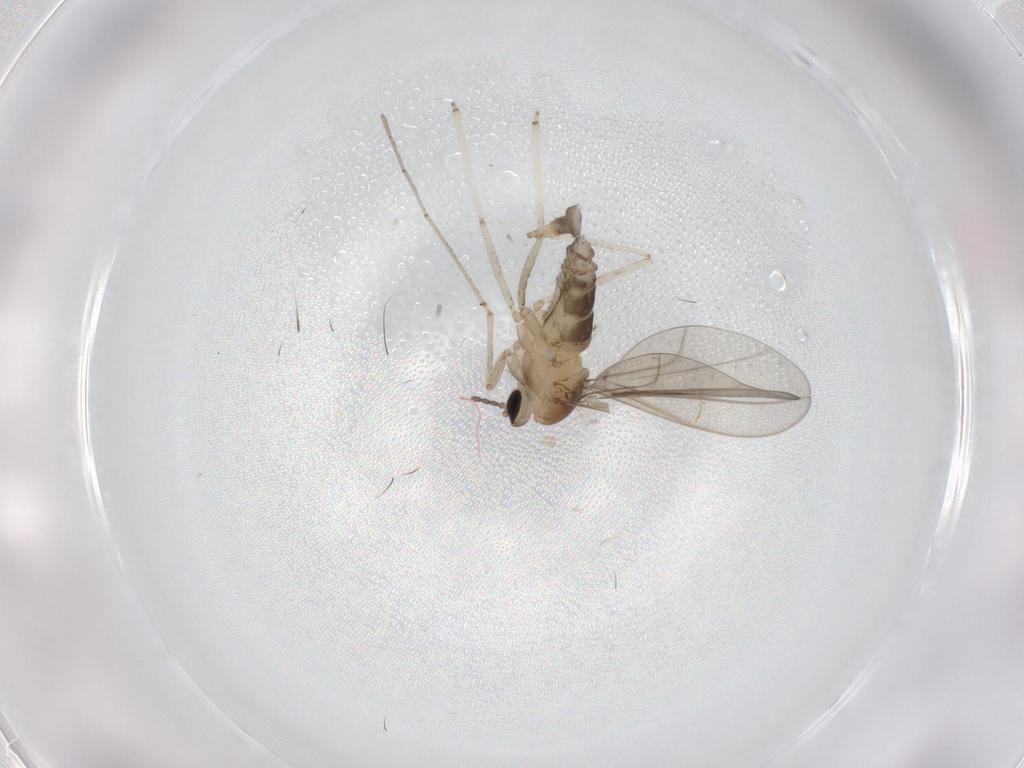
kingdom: Animalia
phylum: Arthropoda
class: Insecta
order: Diptera
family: Cecidomyiidae
